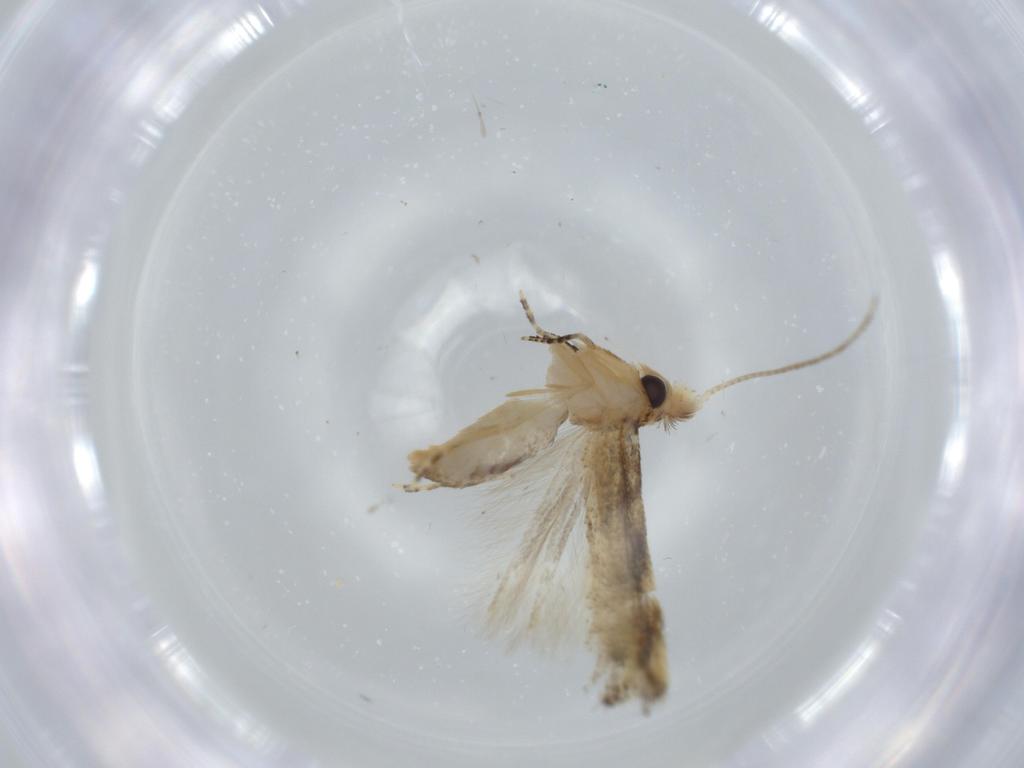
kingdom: Animalia
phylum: Arthropoda
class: Insecta
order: Lepidoptera
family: Bucculatricidae
